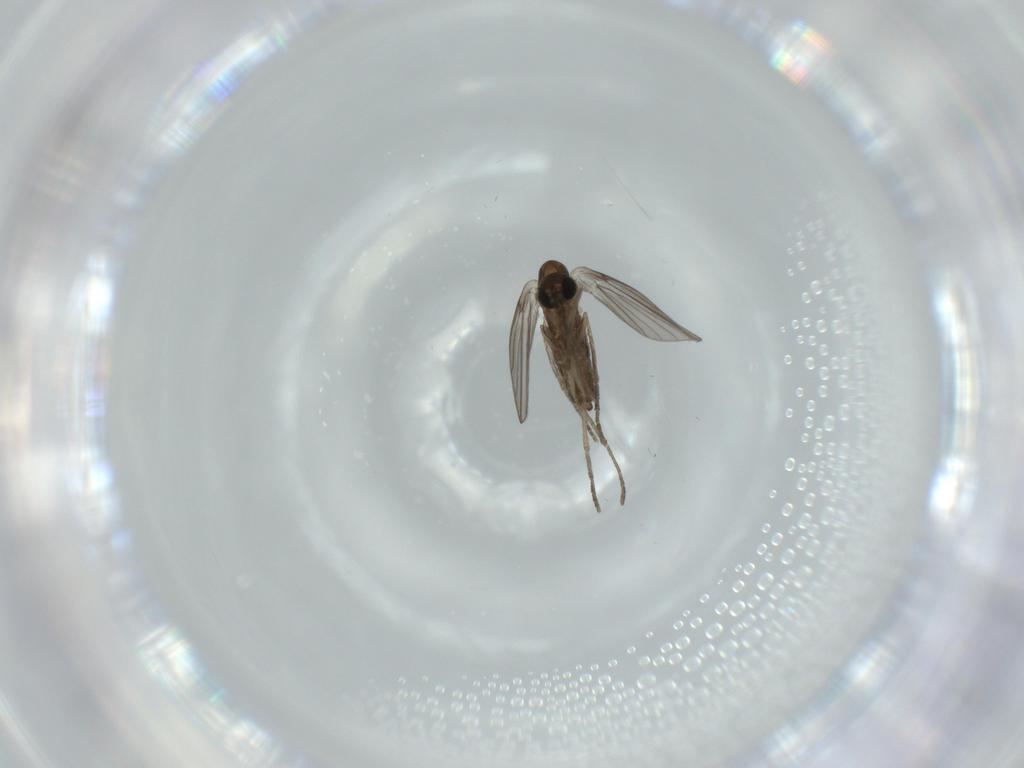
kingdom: Animalia
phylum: Arthropoda
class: Insecta
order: Diptera
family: Psychodidae
